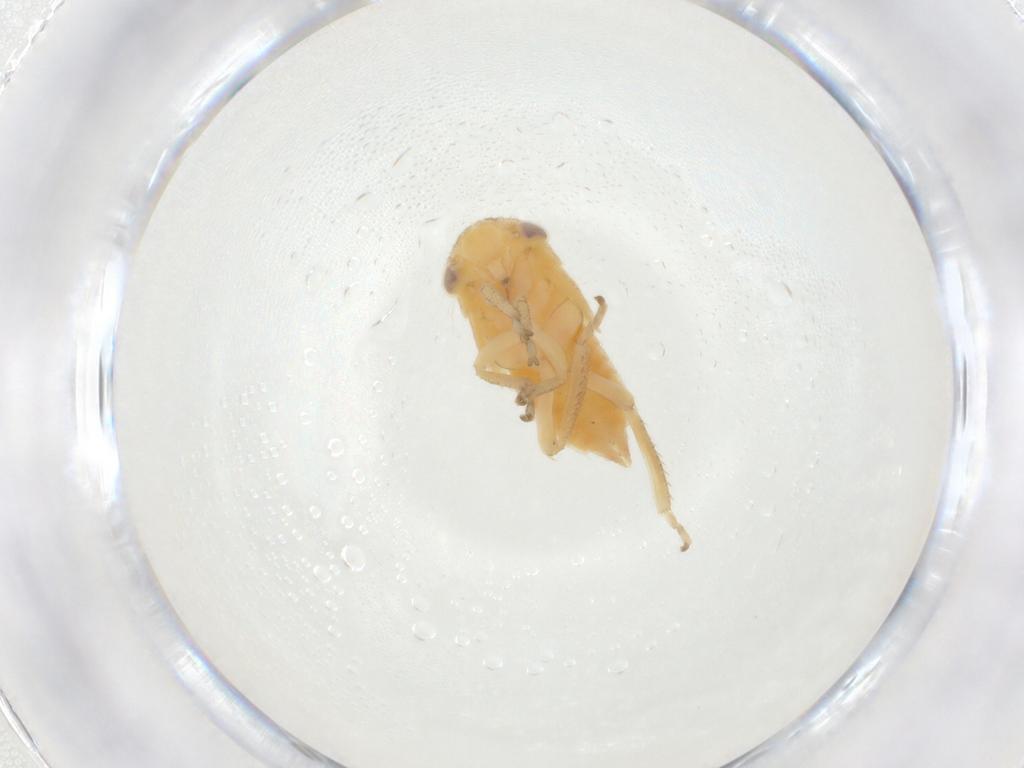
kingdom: Animalia
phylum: Arthropoda
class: Insecta
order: Hemiptera
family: Cicadellidae
